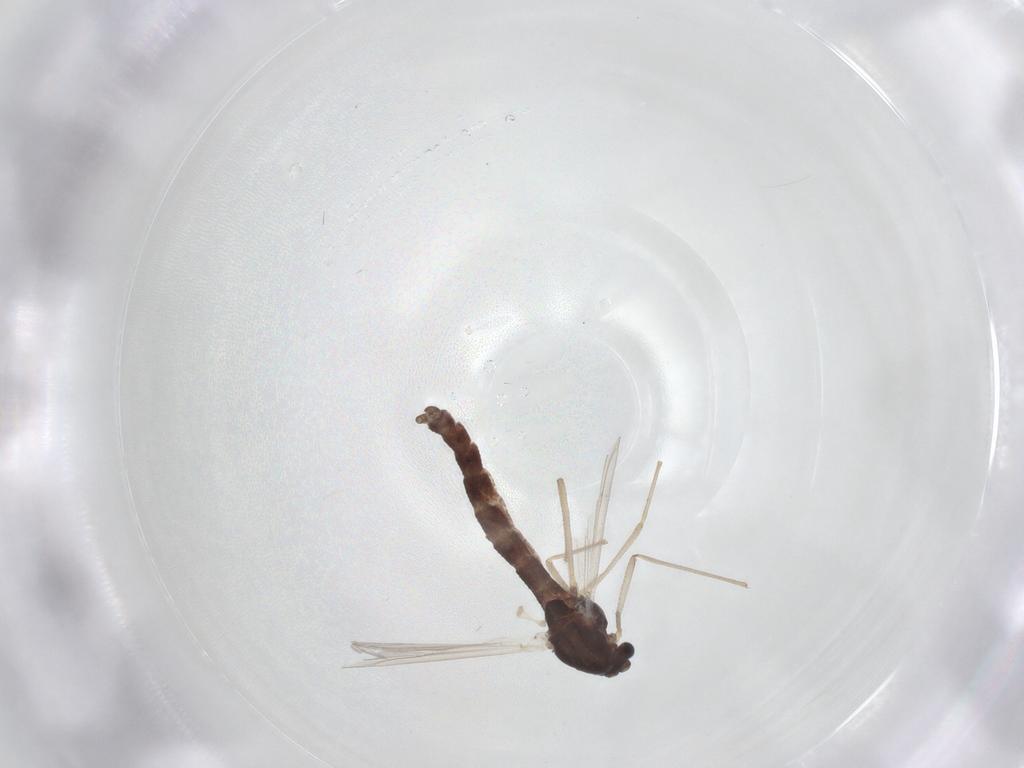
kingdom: Animalia
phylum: Arthropoda
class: Insecta
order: Diptera
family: Chironomidae
